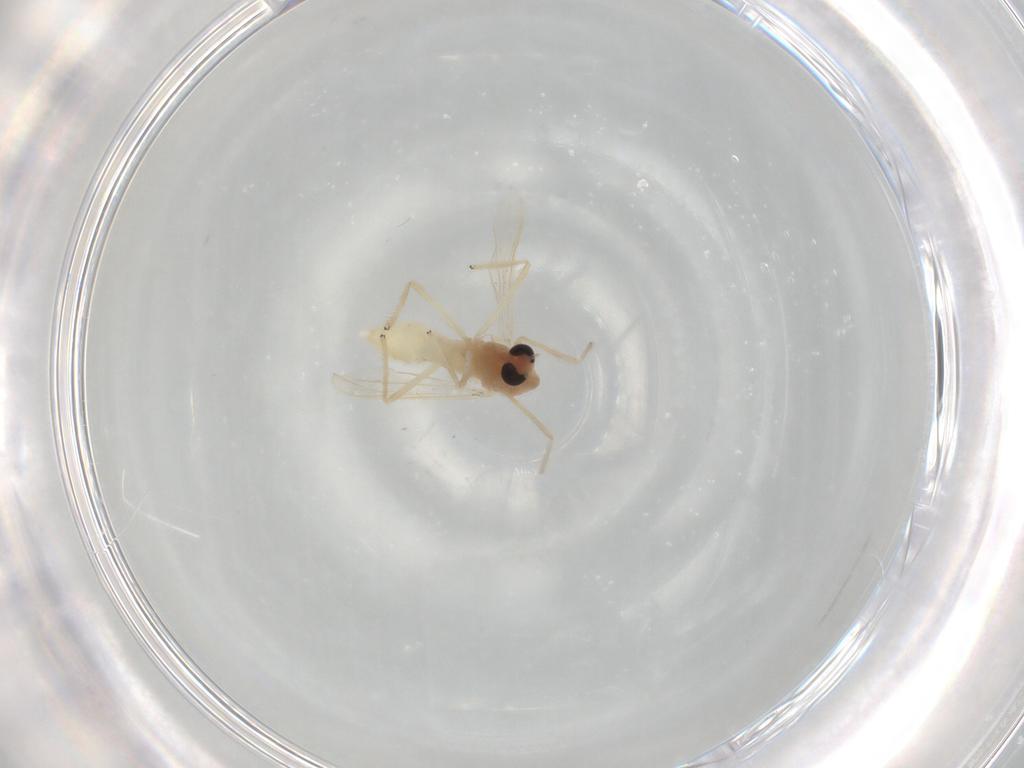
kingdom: Animalia
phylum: Arthropoda
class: Insecta
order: Diptera
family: Chironomidae
